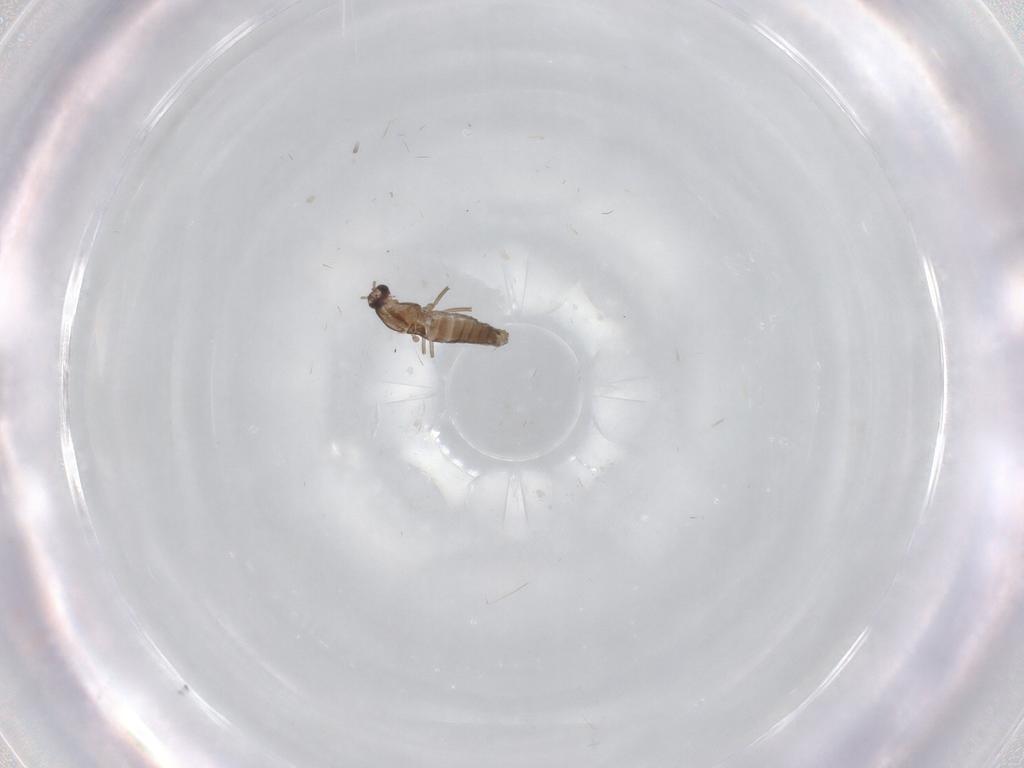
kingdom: Animalia
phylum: Arthropoda
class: Insecta
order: Diptera
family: Chironomidae
